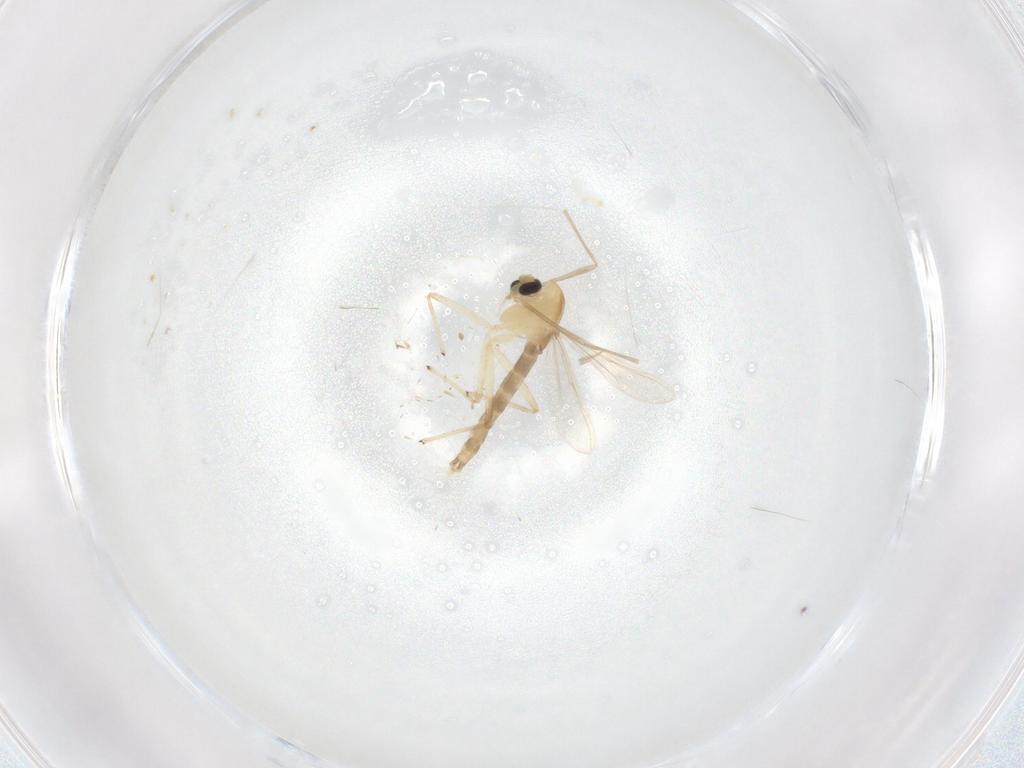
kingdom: Animalia
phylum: Arthropoda
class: Insecta
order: Diptera
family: Chironomidae
